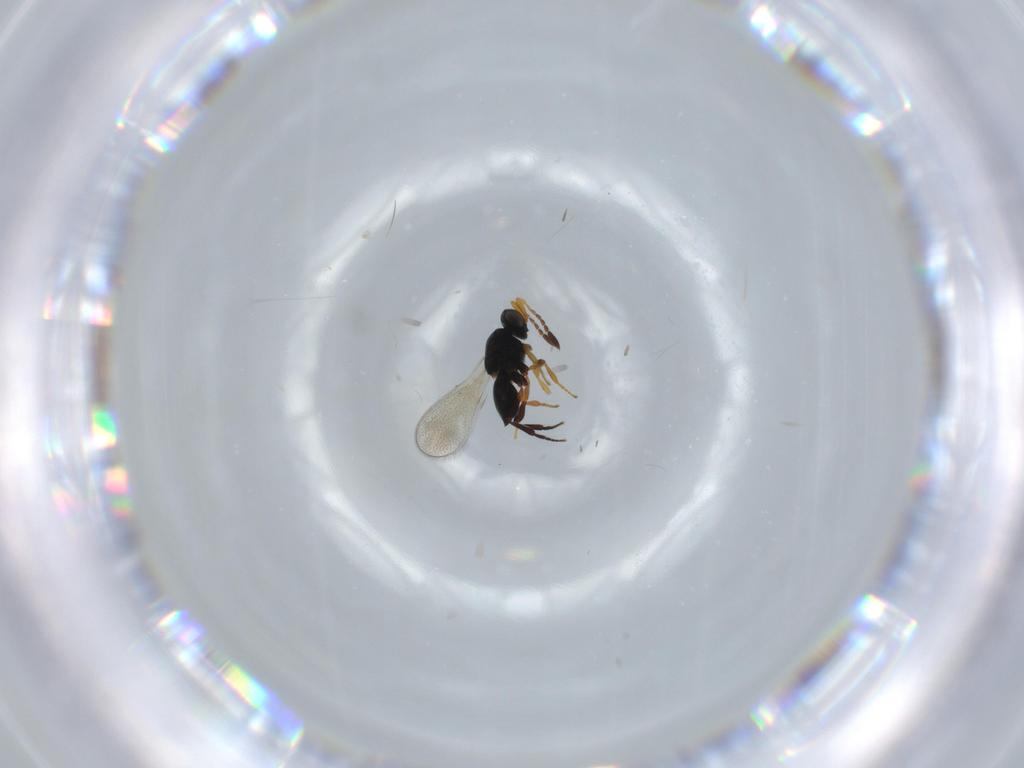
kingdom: Animalia
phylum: Arthropoda
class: Insecta
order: Hymenoptera
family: Platygastridae
